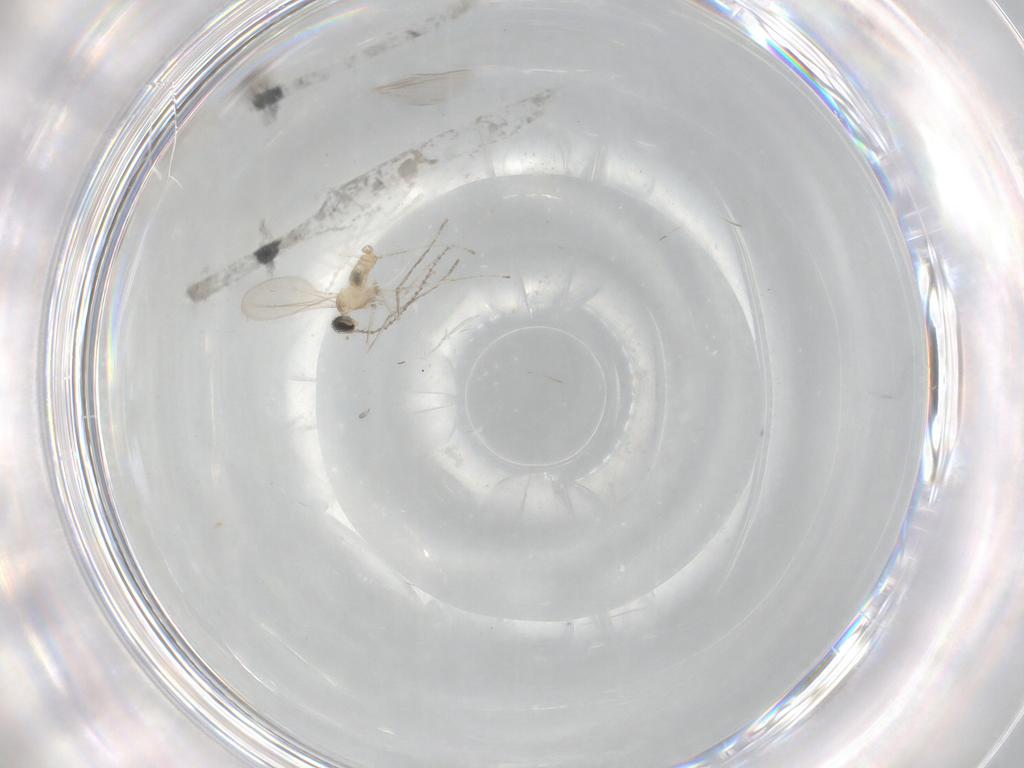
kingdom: Animalia
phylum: Arthropoda
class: Insecta
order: Diptera
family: Cecidomyiidae
